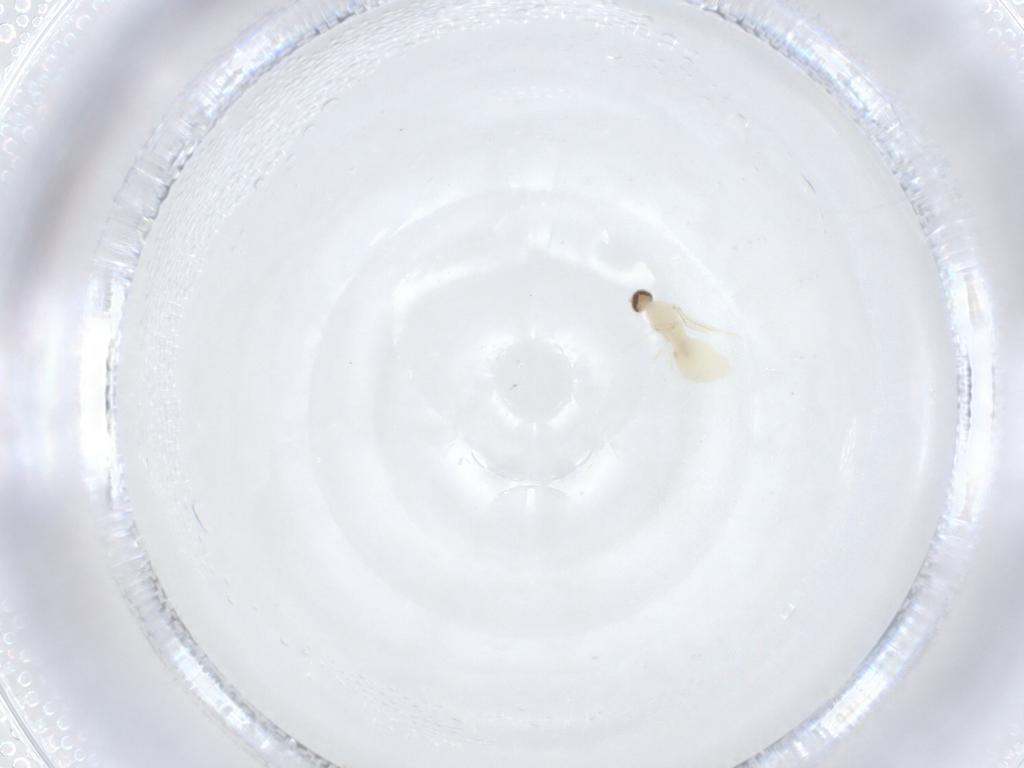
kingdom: Animalia
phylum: Arthropoda
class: Insecta
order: Diptera
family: Cecidomyiidae
